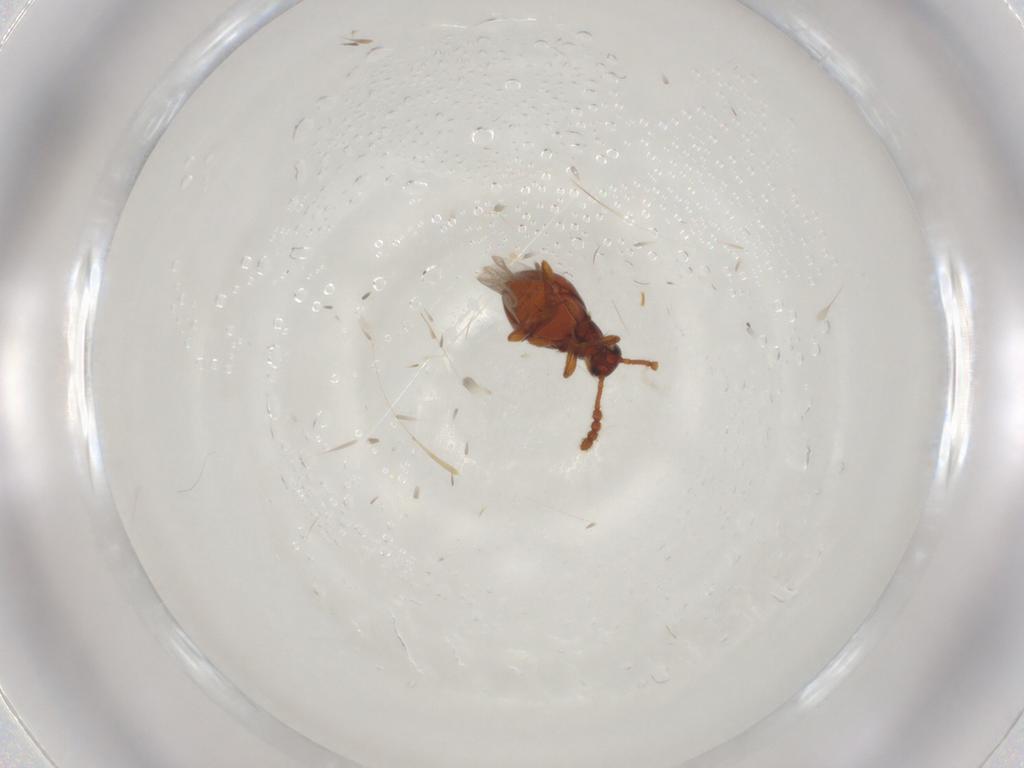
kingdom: Animalia
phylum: Arthropoda
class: Insecta
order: Coleoptera
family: Staphylinidae
